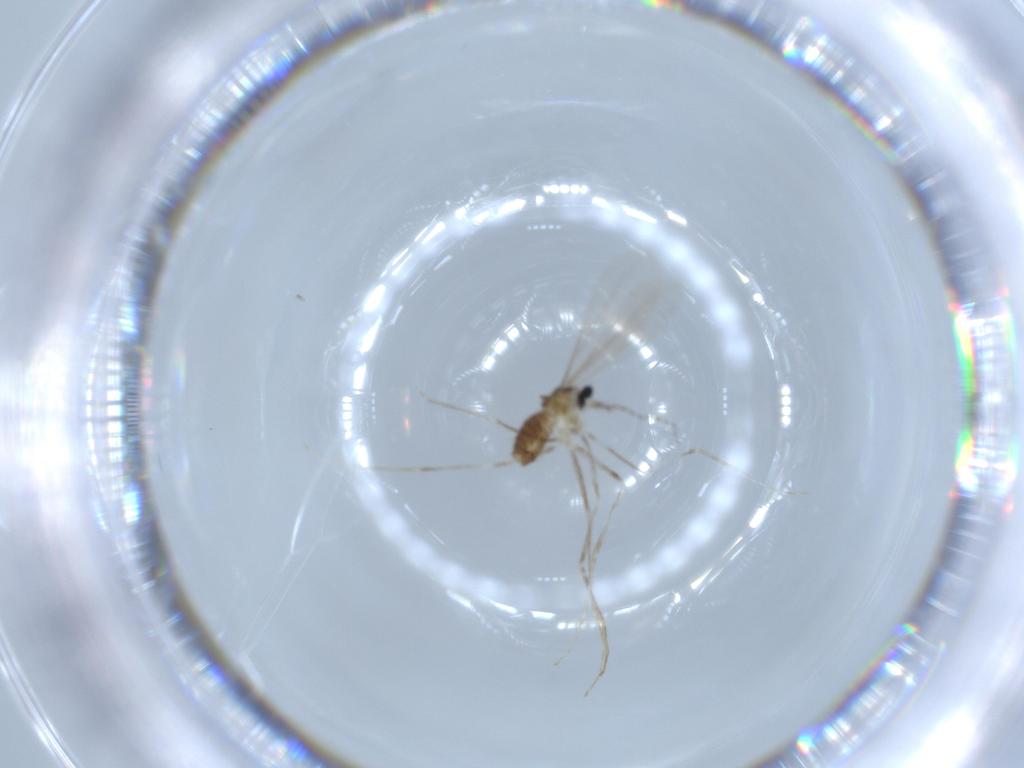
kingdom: Animalia
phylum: Arthropoda
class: Insecta
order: Diptera
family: Cecidomyiidae
